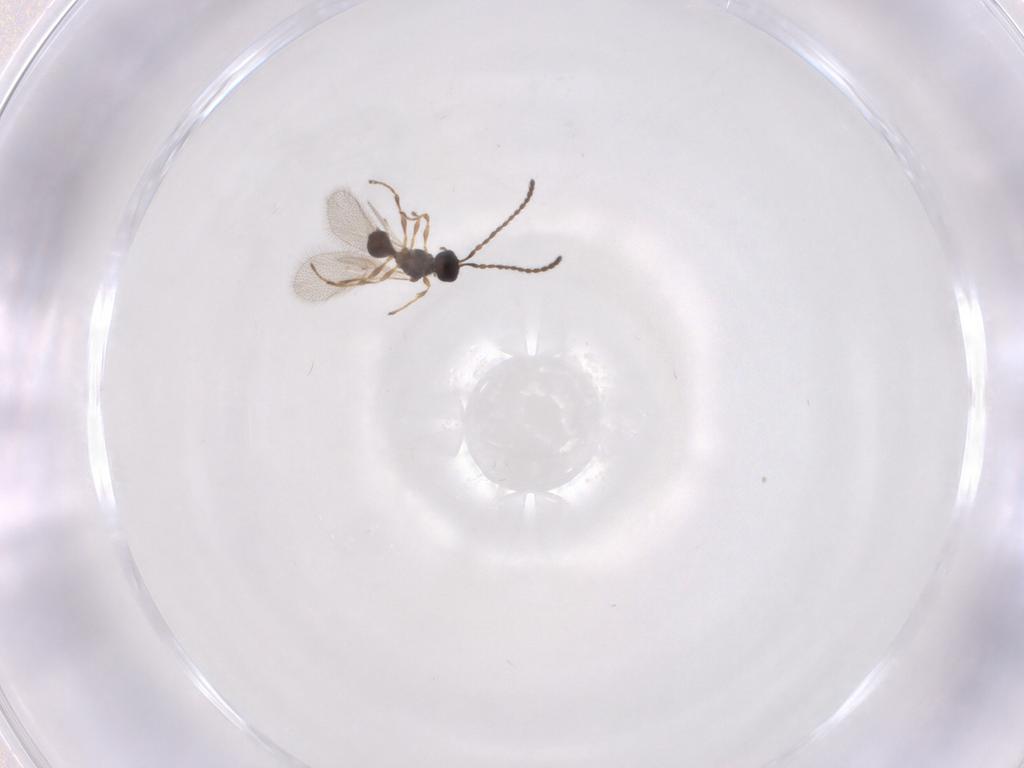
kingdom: Animalia
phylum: Arthropoda
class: Insecta
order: Hymenoptera
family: Diapriidae
